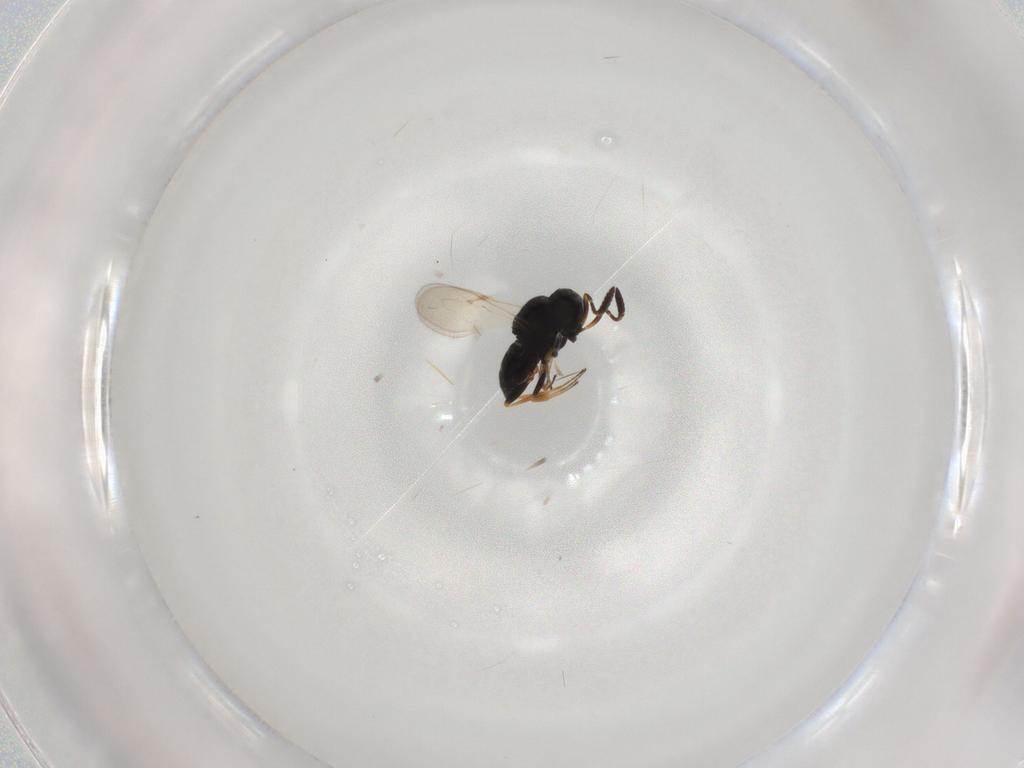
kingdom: Animalia
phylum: Arthropoda
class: Insecta
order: Coleoptera
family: Curculionidae
